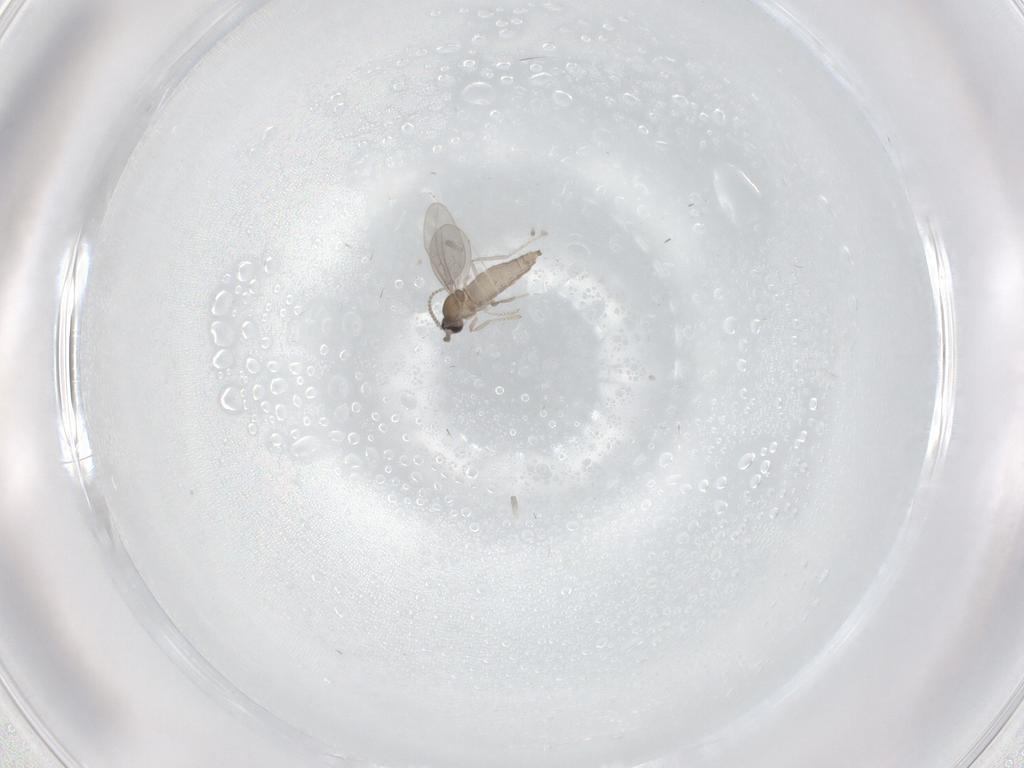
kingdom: Animalia
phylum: Arthropoda
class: Insecta
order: Diptera
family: Cecidomyiidae
